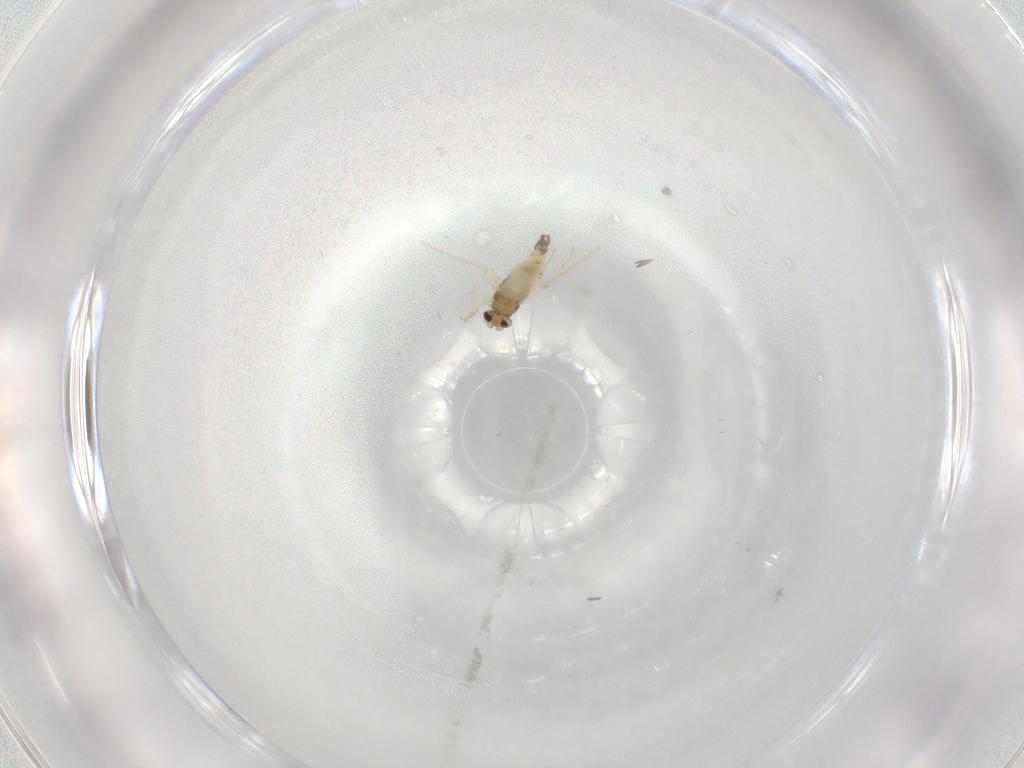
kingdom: Animalia
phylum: Arthropoda
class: Insecta
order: Diptera
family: Chironomidae
